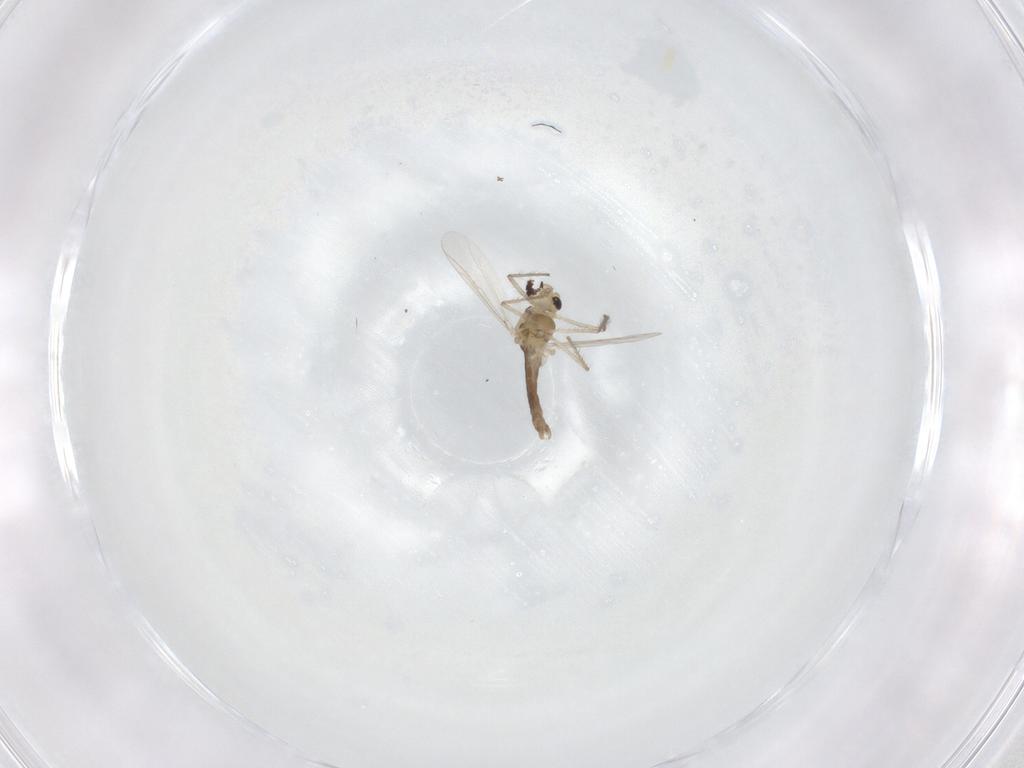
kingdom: Animalia
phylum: Arthropoda
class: Insecta
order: Diptera
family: Chironomidae
